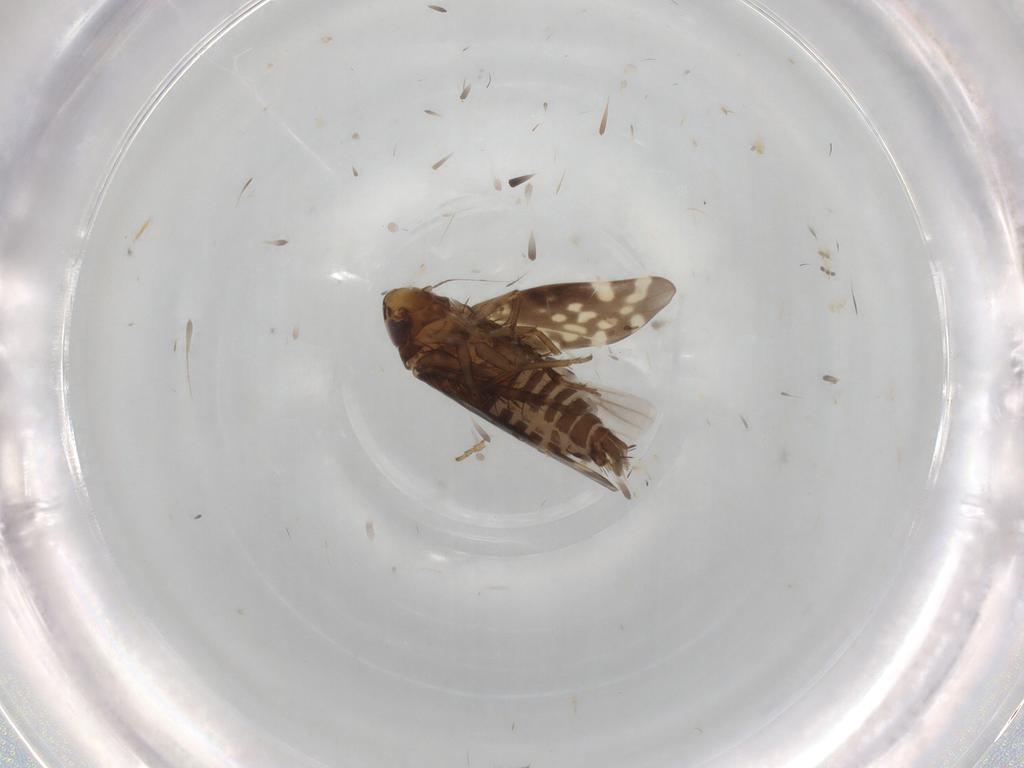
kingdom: Animalia
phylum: Arthropoda
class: Insecta
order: Hemiptera
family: Cicadellidae
